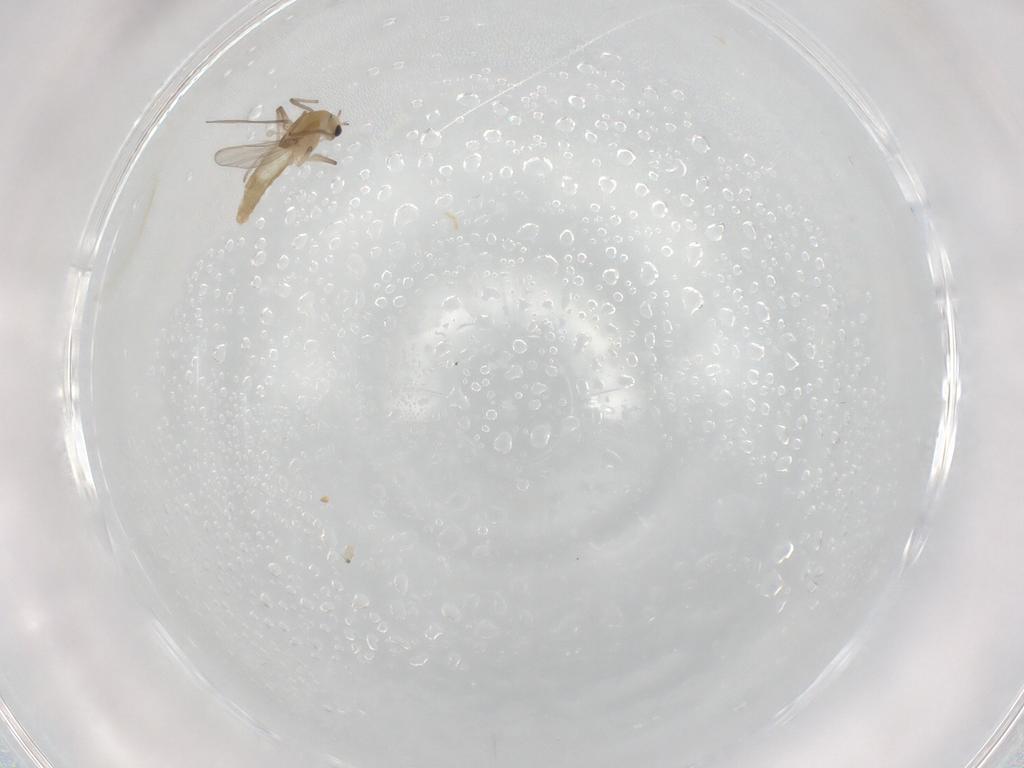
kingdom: Animalia
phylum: Arthropoda
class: Insecta
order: Diptera
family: Chironomidae
